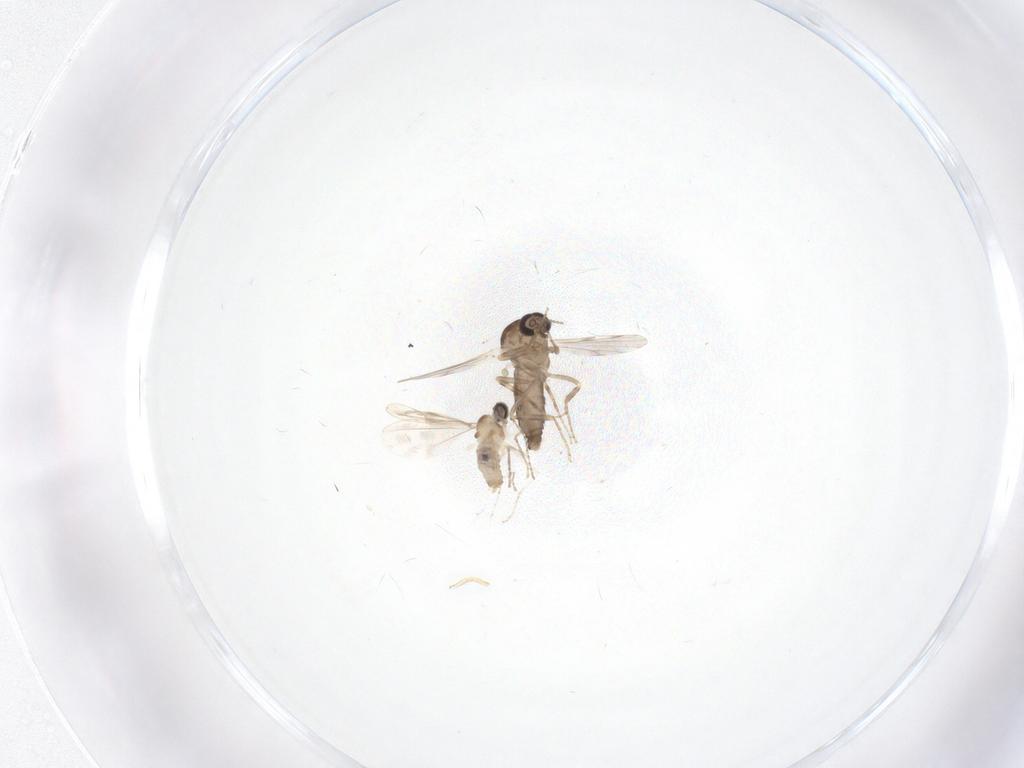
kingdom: Animalia
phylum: Arthropoda
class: Insecta
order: Diptera
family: Ceratopogonidae
